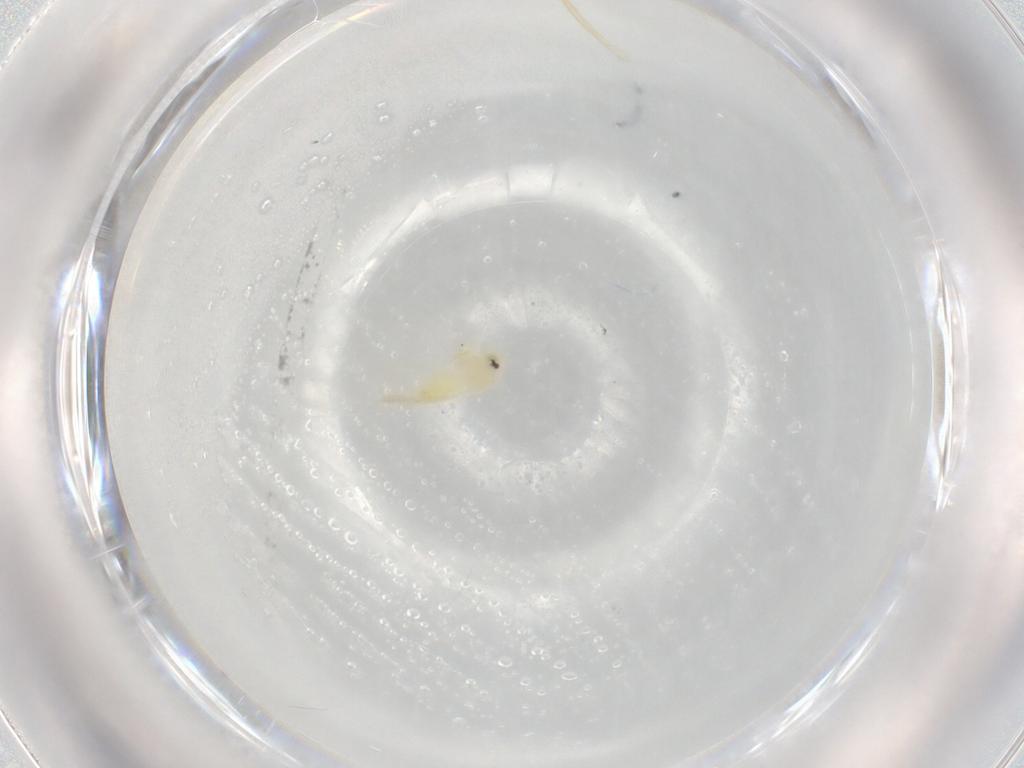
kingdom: Animalia
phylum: Arthropoda
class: Insecta
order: Hemiptera
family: Aleyrodidae
